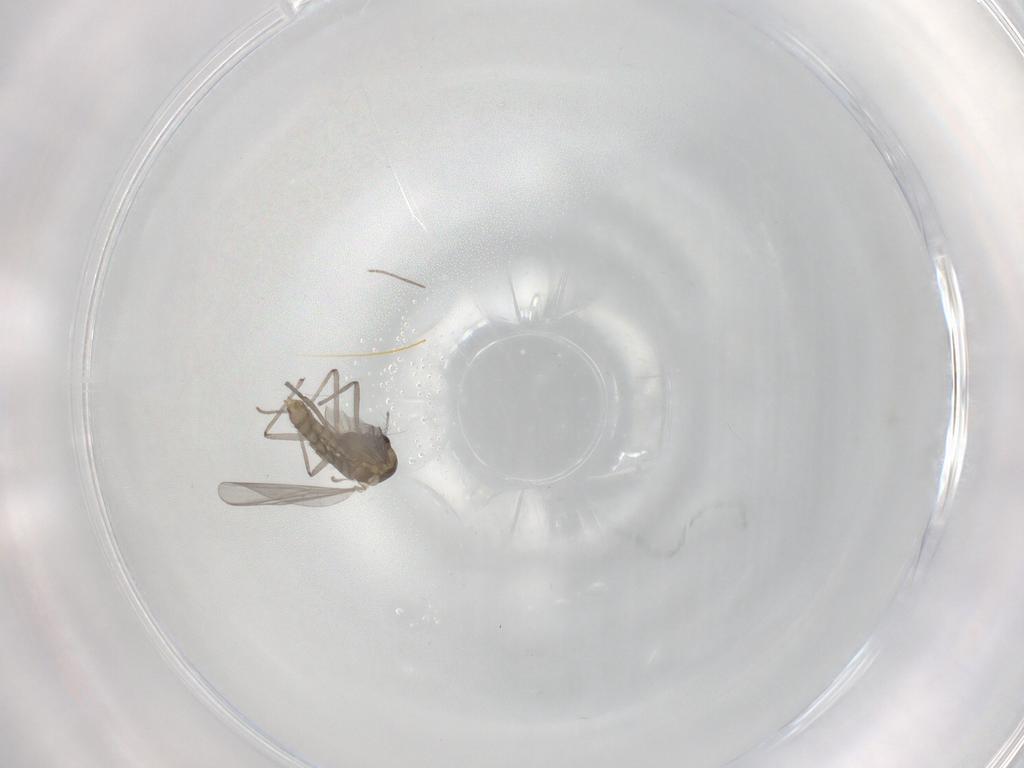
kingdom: Animalia
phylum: Arthropoda
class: Insecta
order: Diptera
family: Chironomidae
